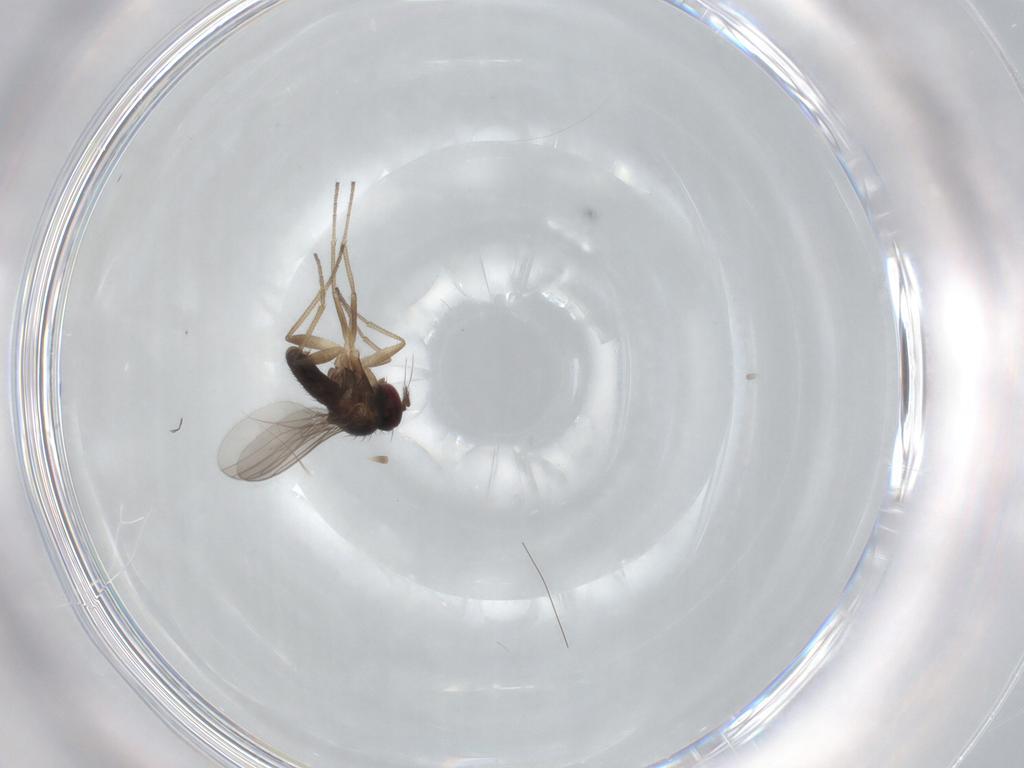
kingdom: Animalia
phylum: Arthropoda
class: Insecta
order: Diptera
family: Dolichopodidae
